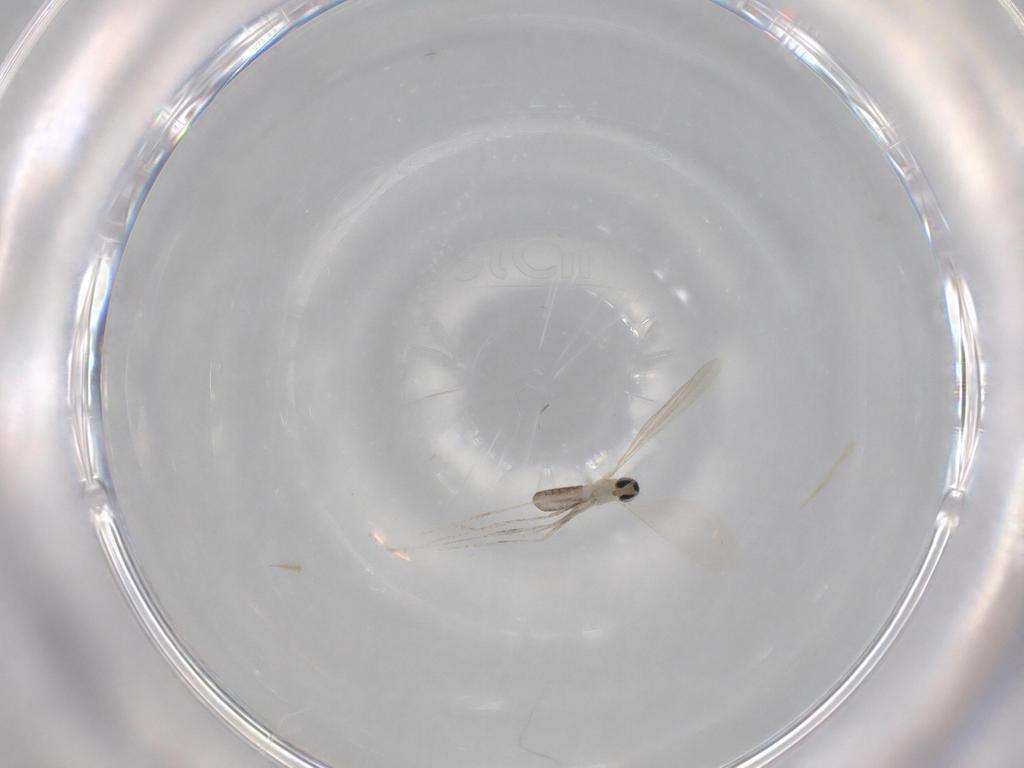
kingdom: Animalia
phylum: Arthropoda
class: Insecta
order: Diptera
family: Cecidomyiidae
